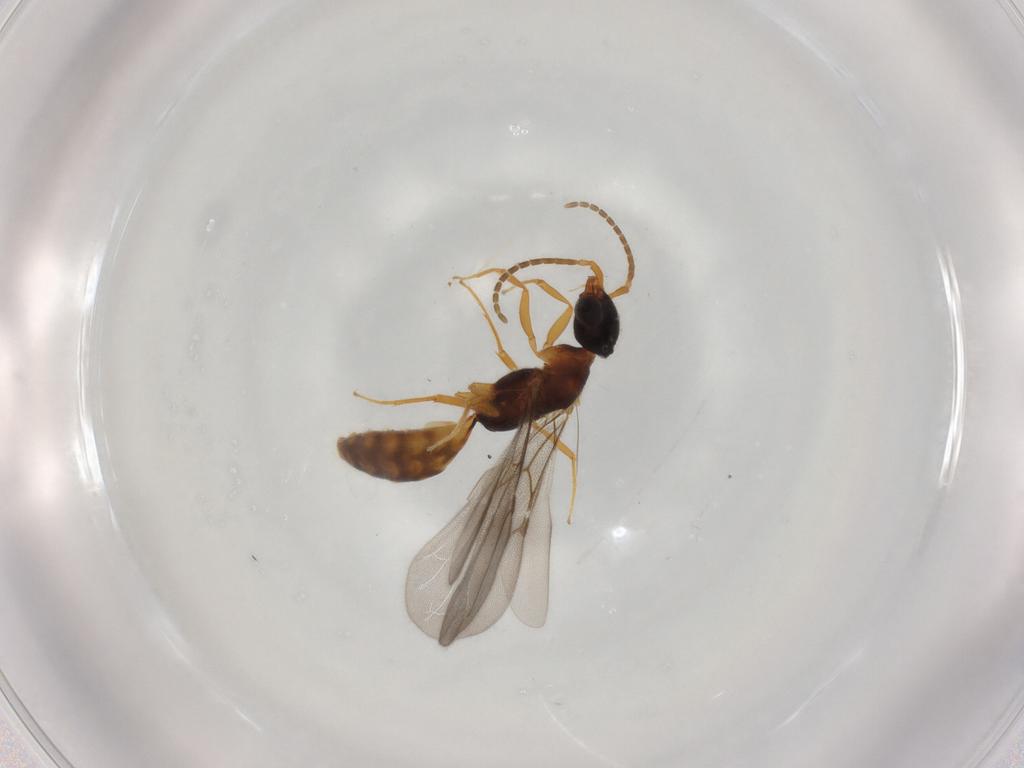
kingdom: Animalia
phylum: Arthropoda
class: Insecta
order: Hymenoptera
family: Bethylidae
